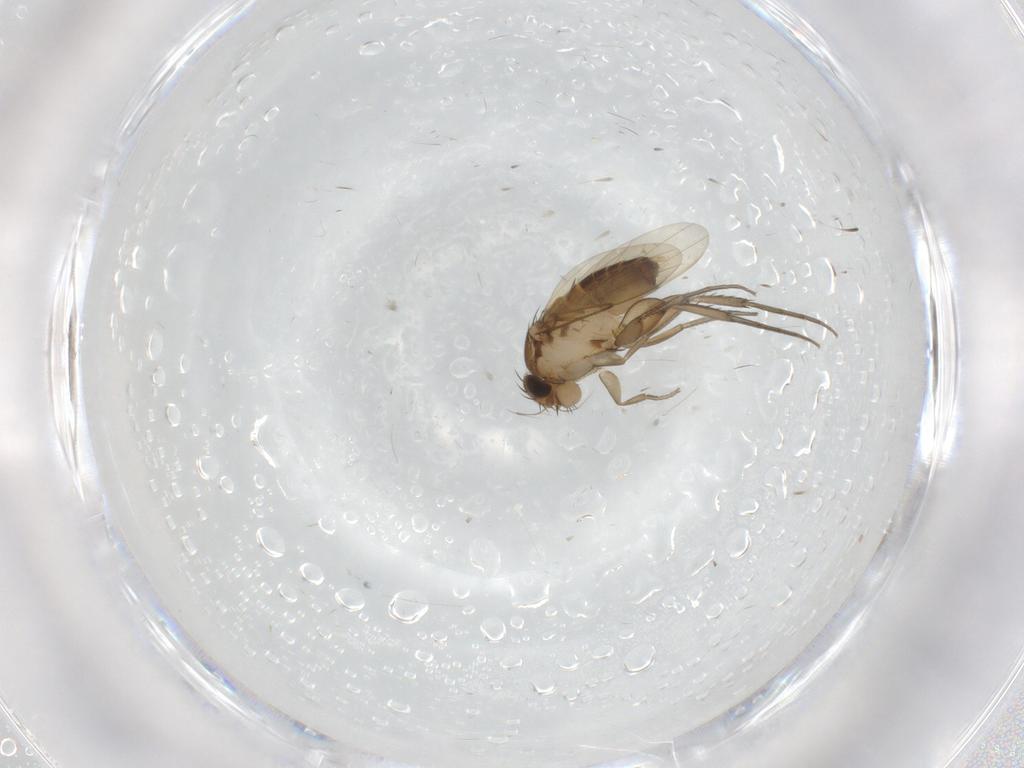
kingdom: Animalia
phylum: Arthropoda
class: Insecta
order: Diptera
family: Phoridae
